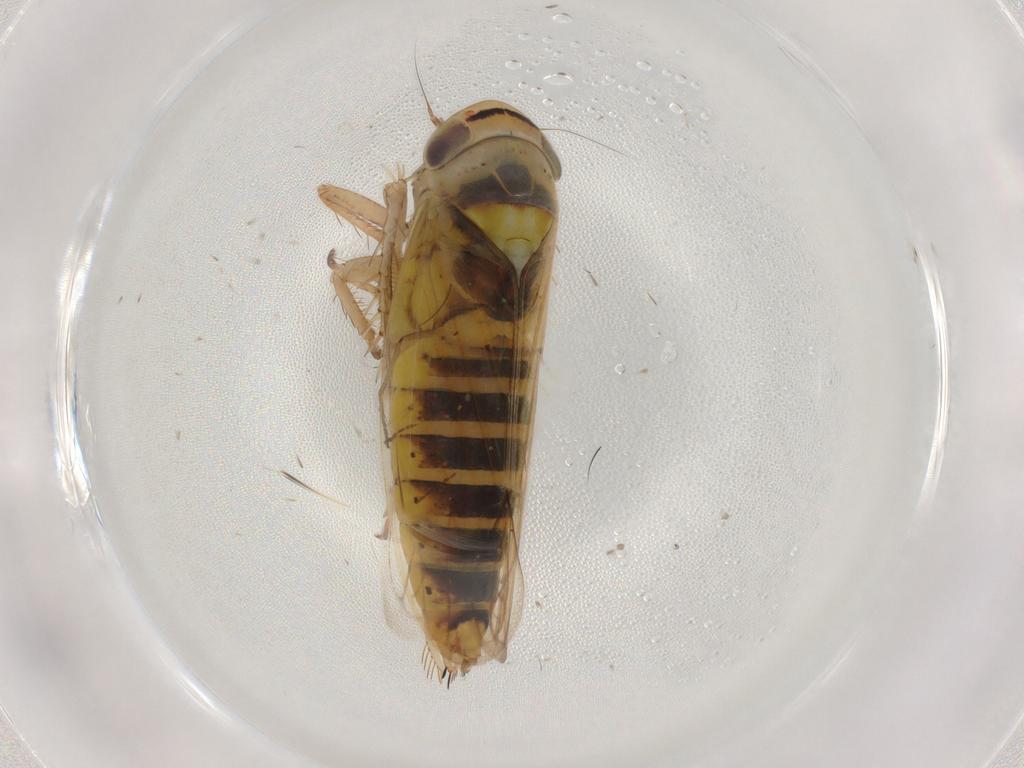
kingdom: Animalia
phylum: Arthropoda
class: Insecta
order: Hemiptera
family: Cicadellidae
